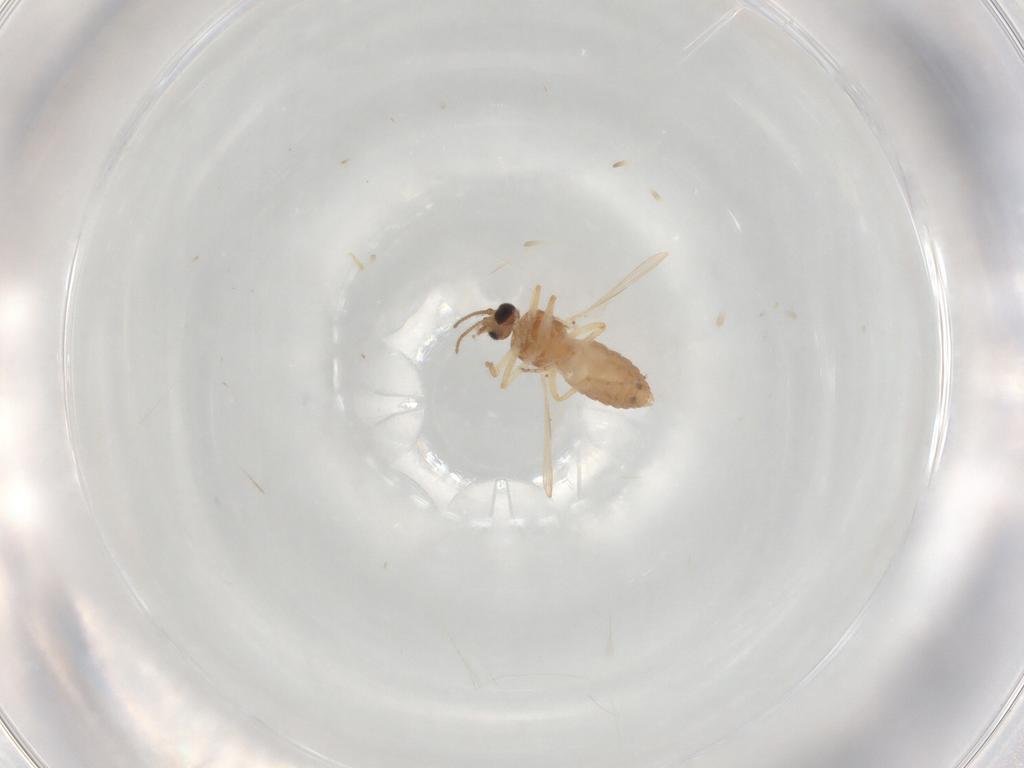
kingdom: Animalia
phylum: Arthropoda
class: Insecta
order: Diptera
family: Ceratopogonidae
